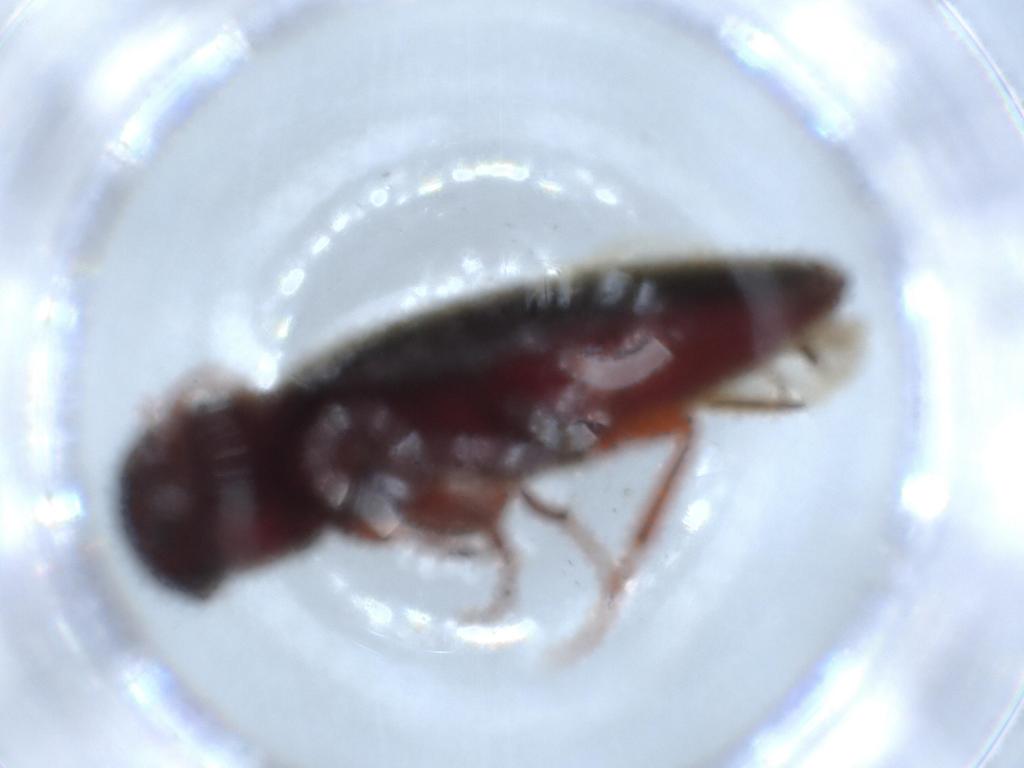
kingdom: Animalia
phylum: Arthropoda
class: Insecta
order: Coleoptera
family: Eucnemidae
